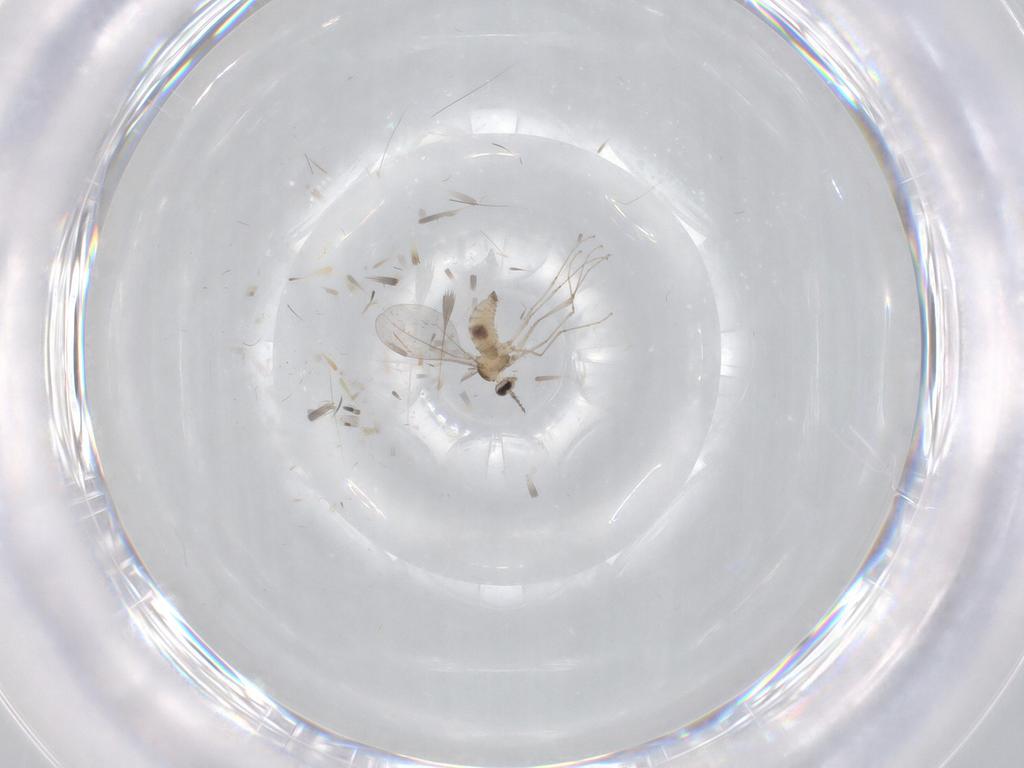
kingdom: Animalia
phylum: Arthropoda
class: Insecta
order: Diptera
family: Cecidomyiidae
